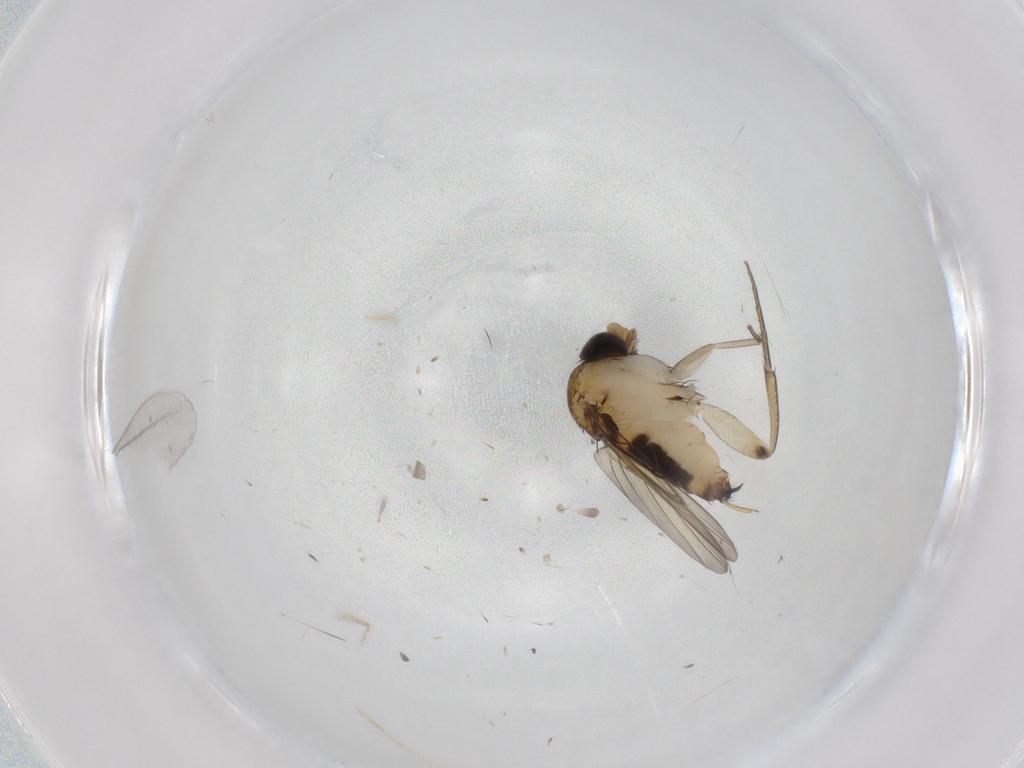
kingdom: Animalia
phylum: Arthropoda
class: Insecta
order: Diptera
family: Phoridae
